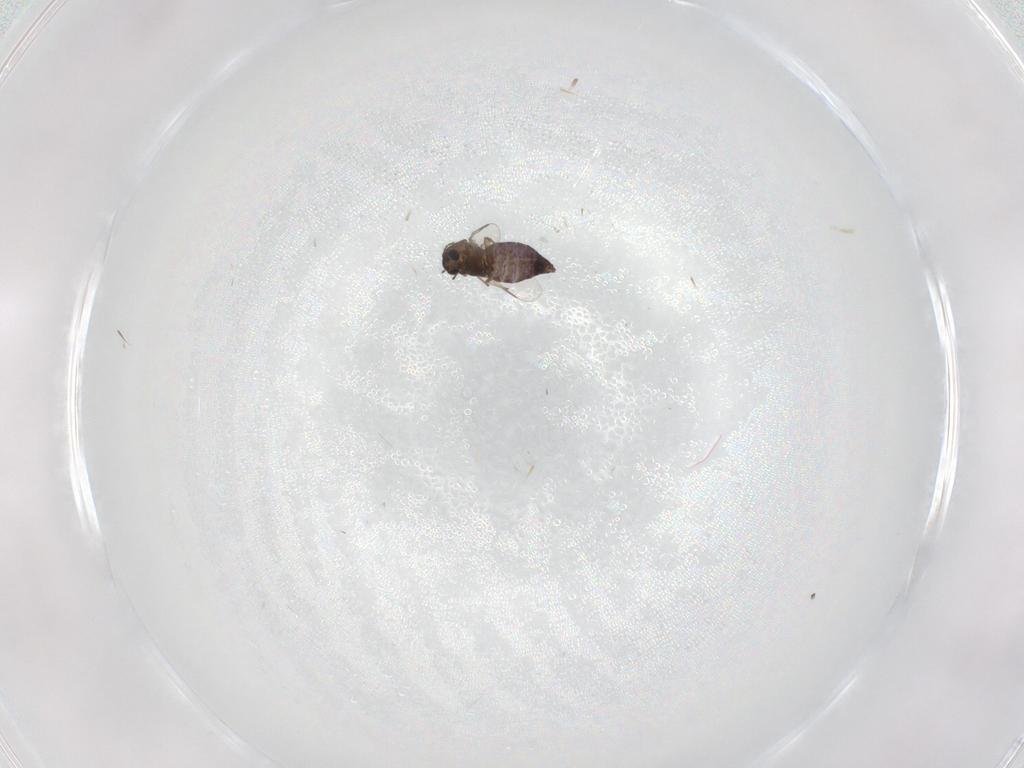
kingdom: Animalia
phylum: Arthropoda
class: Insecta
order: Diptera
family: Chironomidae
